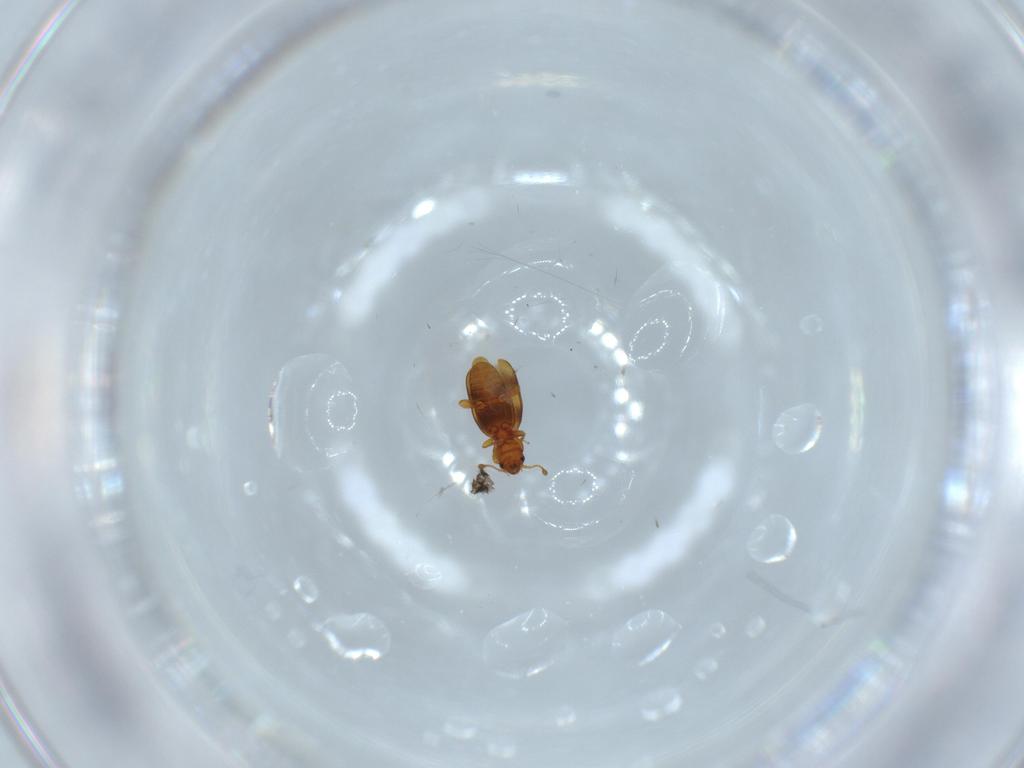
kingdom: Animalia
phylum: Arthropoda
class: Insecta
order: Coleoptera
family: Monotomidae
